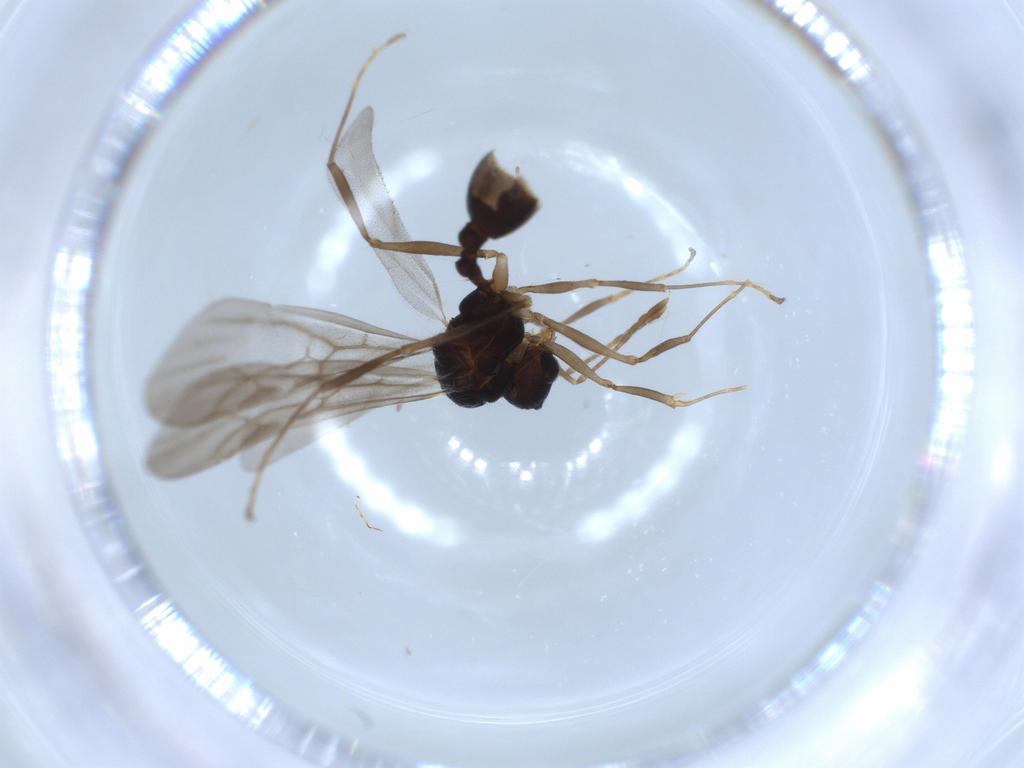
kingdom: Animalia
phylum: Arthropoda
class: Insecta
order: Hymenoptera
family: Formicidae
